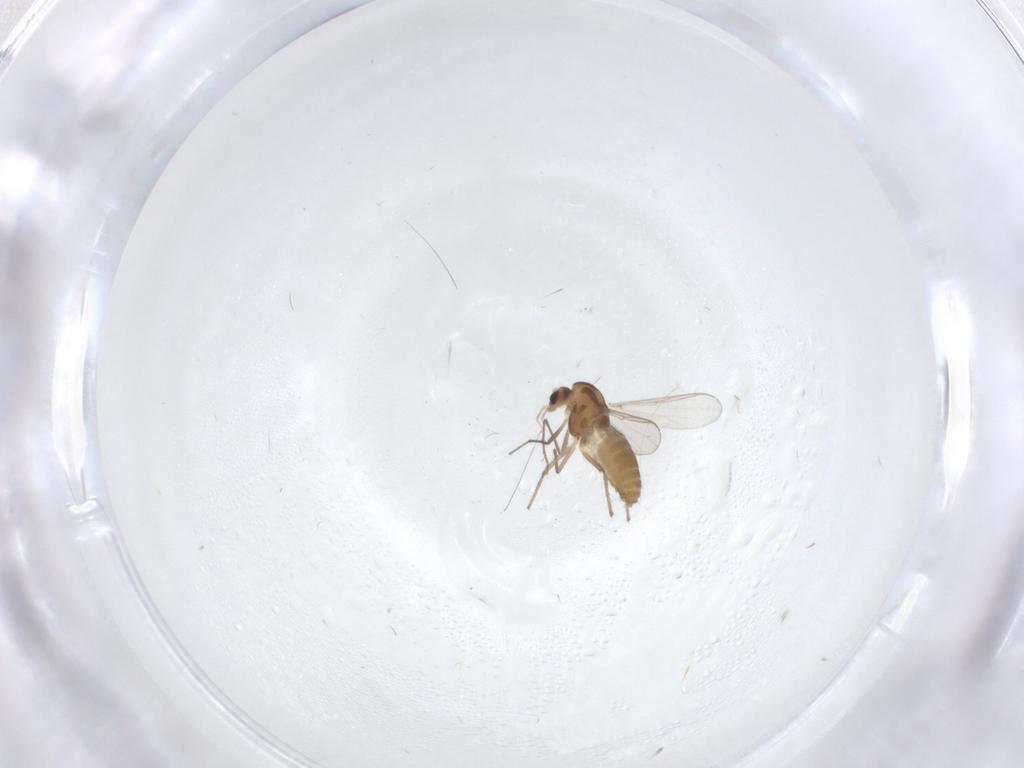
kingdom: Animalia
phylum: Arthropoda
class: Insecta
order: Diptera
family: Chironomidae
